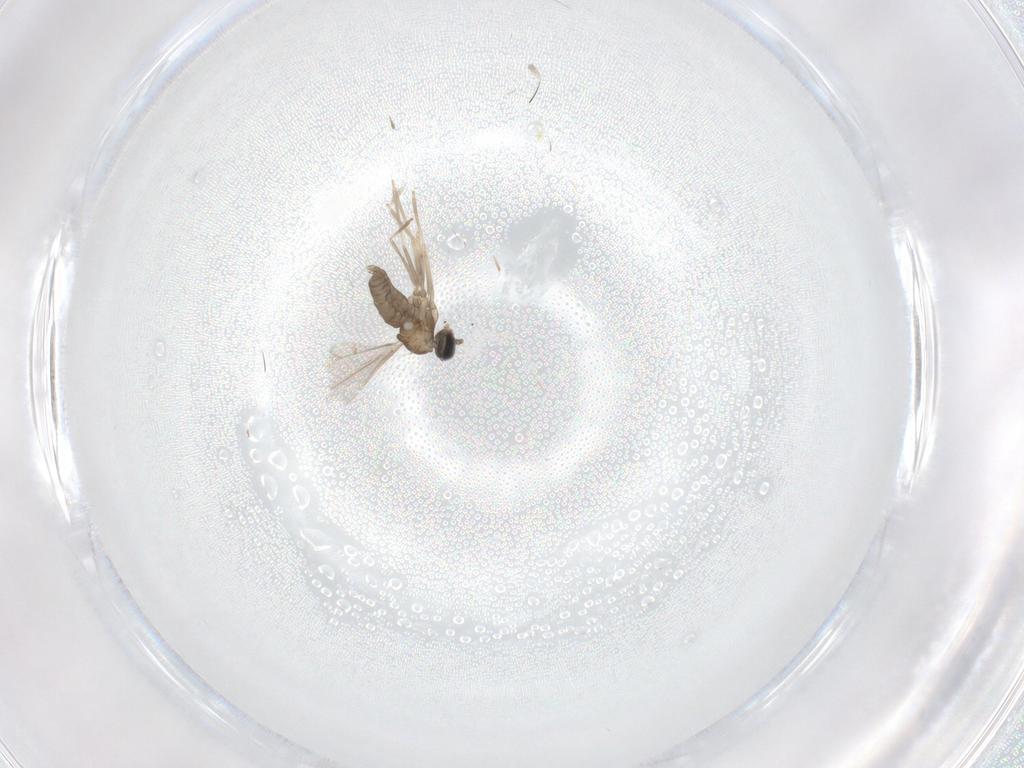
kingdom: Animalia
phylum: Arthropoda
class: Insecta
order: Diptera
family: Cecidomyiidae
